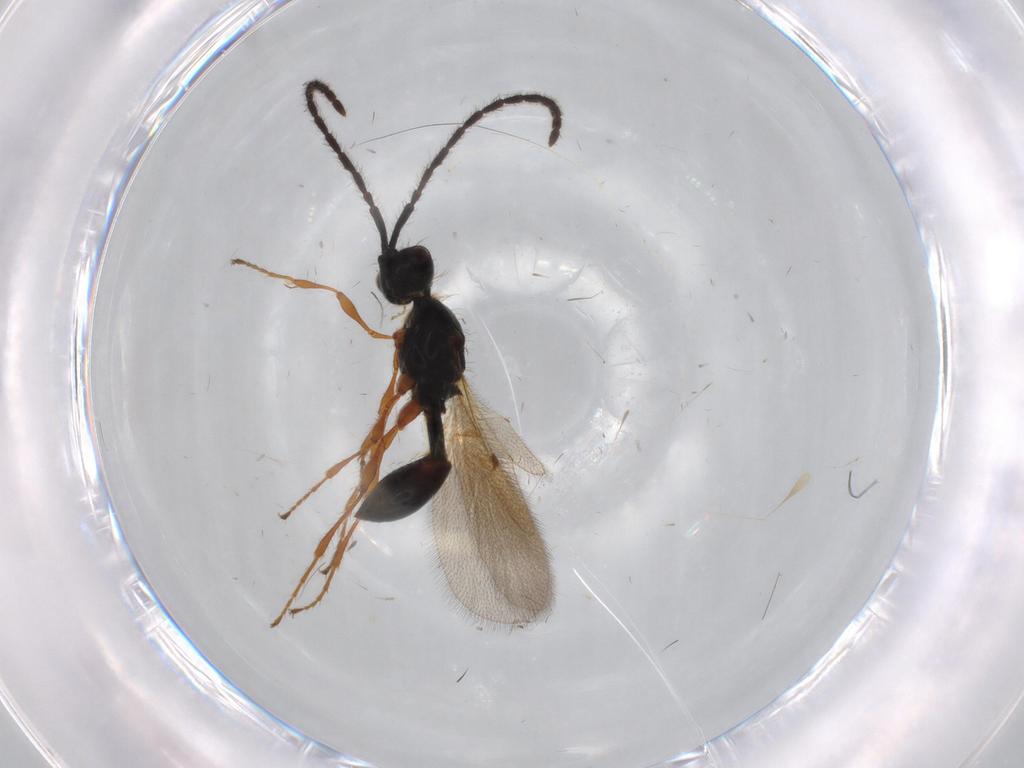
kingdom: Animalia
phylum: Arthropoda
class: Insecta
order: Hymenoptera
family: Diapriidae
